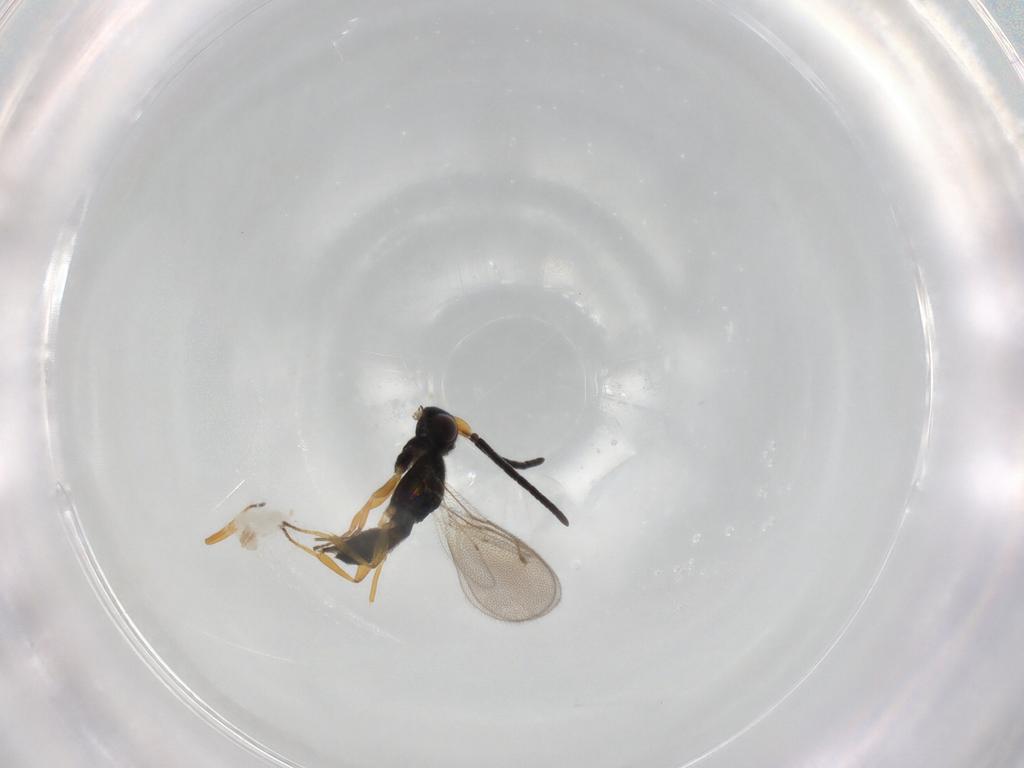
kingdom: Animalia
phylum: Arthropoda
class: Insecta
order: Hymenoptera
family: Eupelmidae
